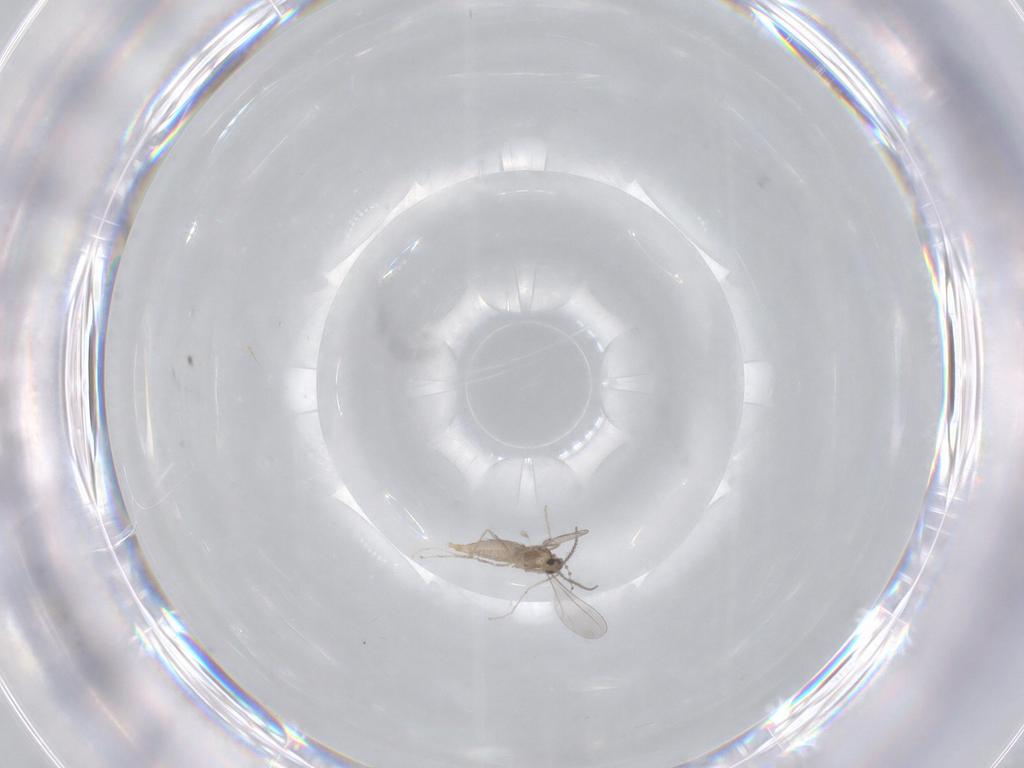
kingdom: Animalia
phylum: Arthropoda
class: Insecta
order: Diptera
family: Cecidomyiidae
